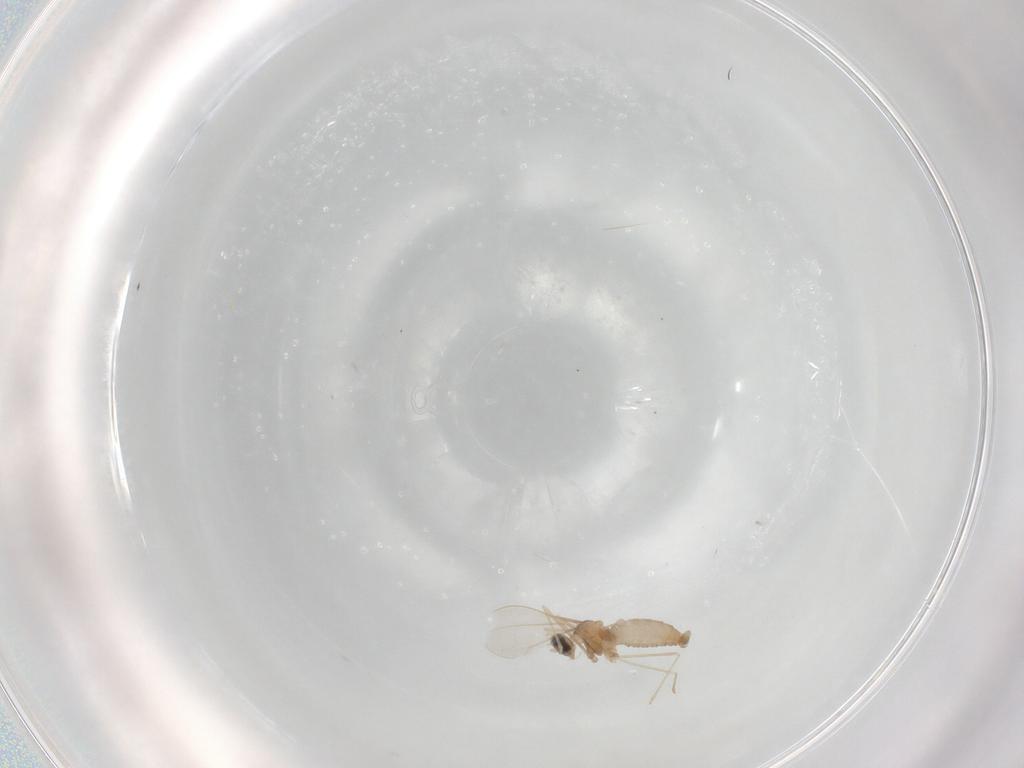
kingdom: Animalia
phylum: Arthropoda
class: Insecta
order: Diptera
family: Cecidomyiidae
